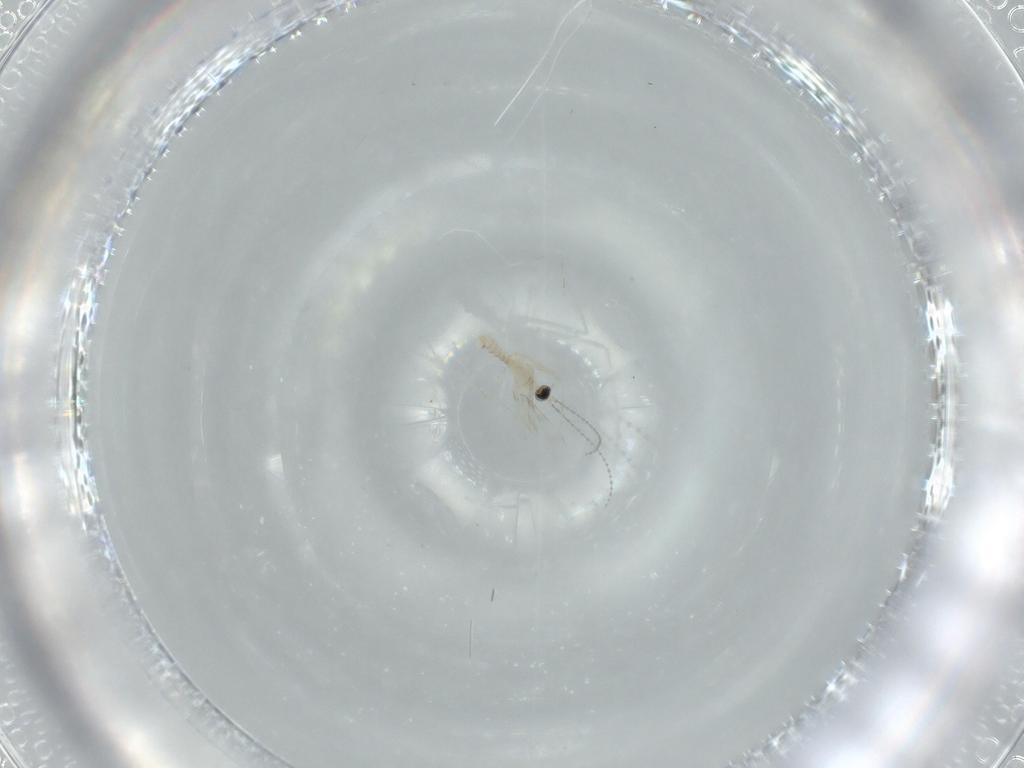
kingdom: Animalia
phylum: Arthropoda
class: Insecta
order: Diptera
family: Cecidomyiidae
